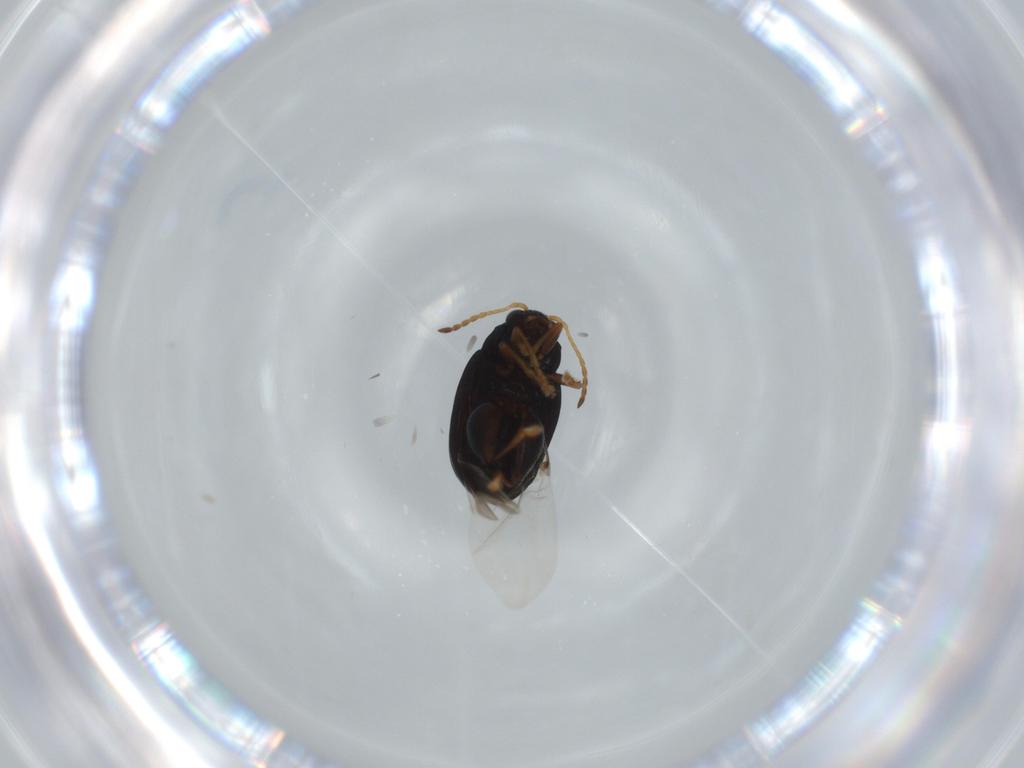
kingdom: Animalia
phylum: Arthropoda
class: Insecta
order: Coleoptera
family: Chrysomelidae
